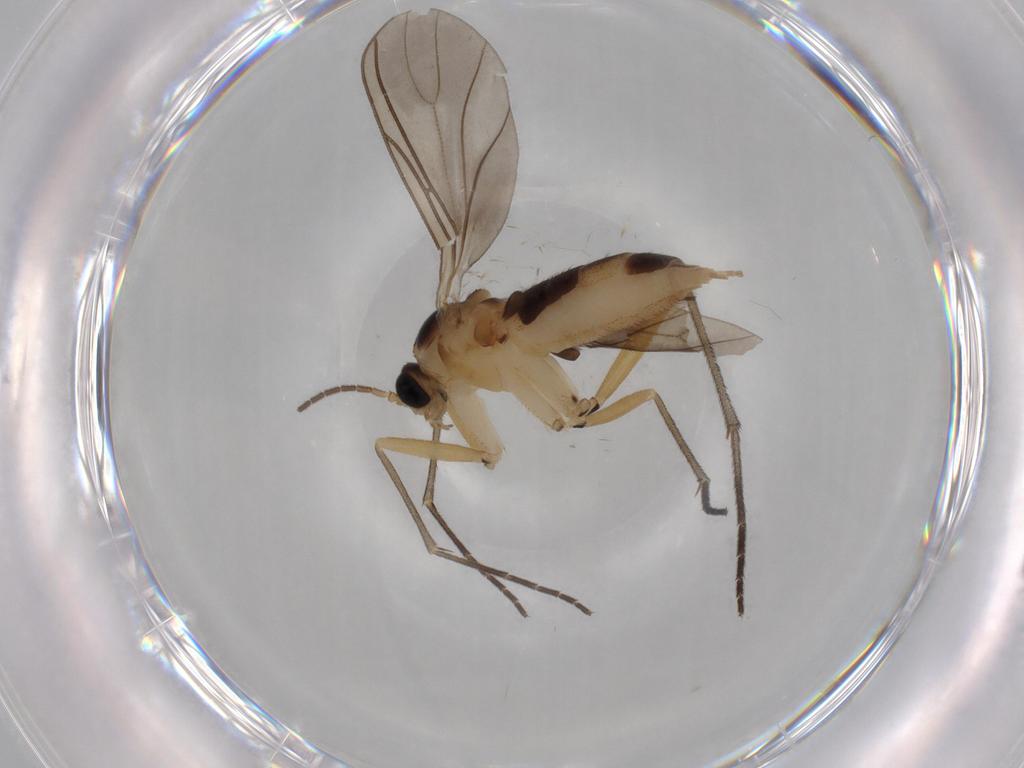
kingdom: Animalia
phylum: Arthropoda
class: Insecta
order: Diptera
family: Sciaridae
